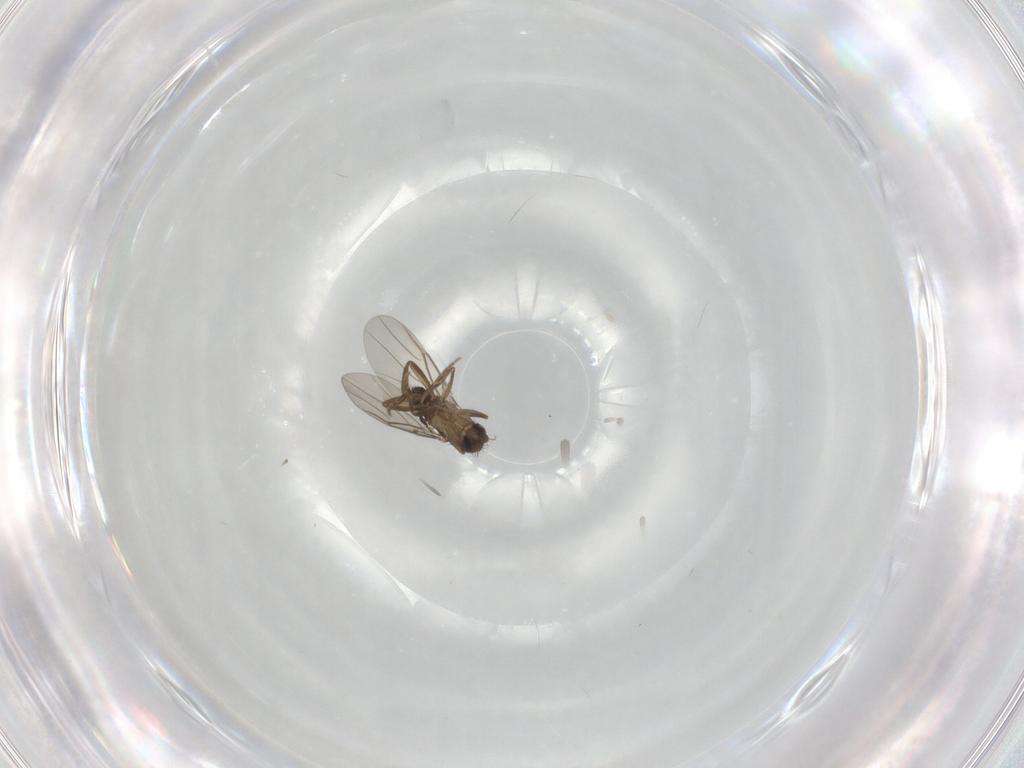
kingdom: Animalia
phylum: Arthropoda
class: Insecta
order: Diptera
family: Phoridae
